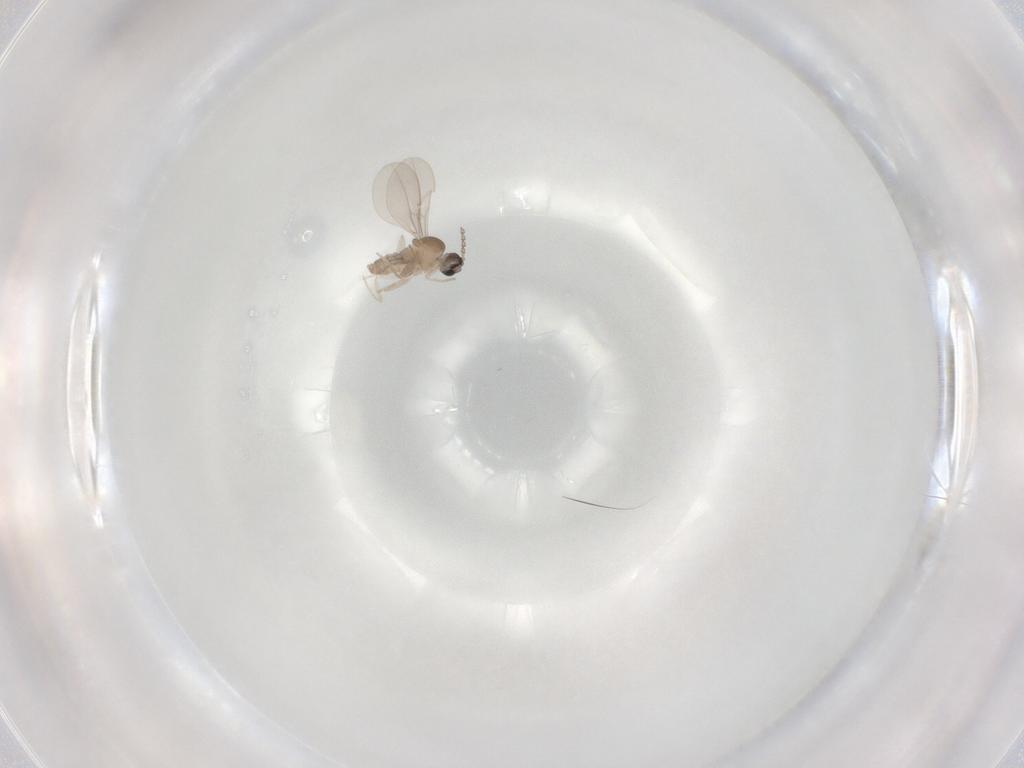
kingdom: Animalia
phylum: Arthropoda
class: Insecta
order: Diptera
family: Cecidomyiidae
